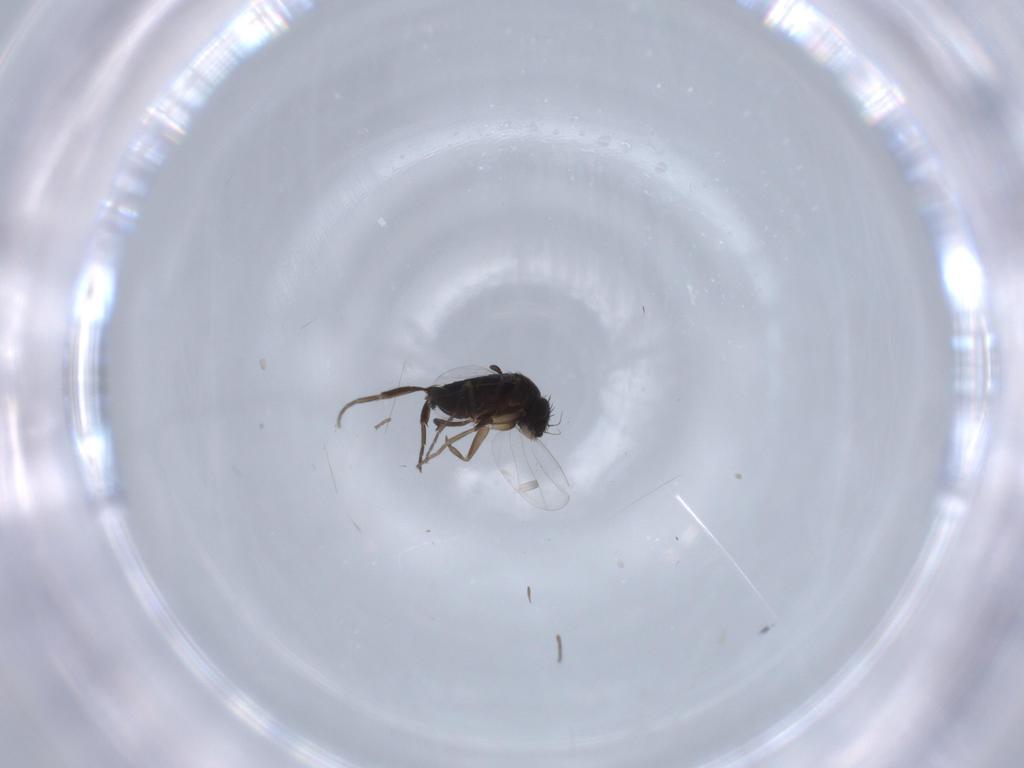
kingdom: Animalia
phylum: Arthropoda
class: Insecta
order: Diptera
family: Phoridae
